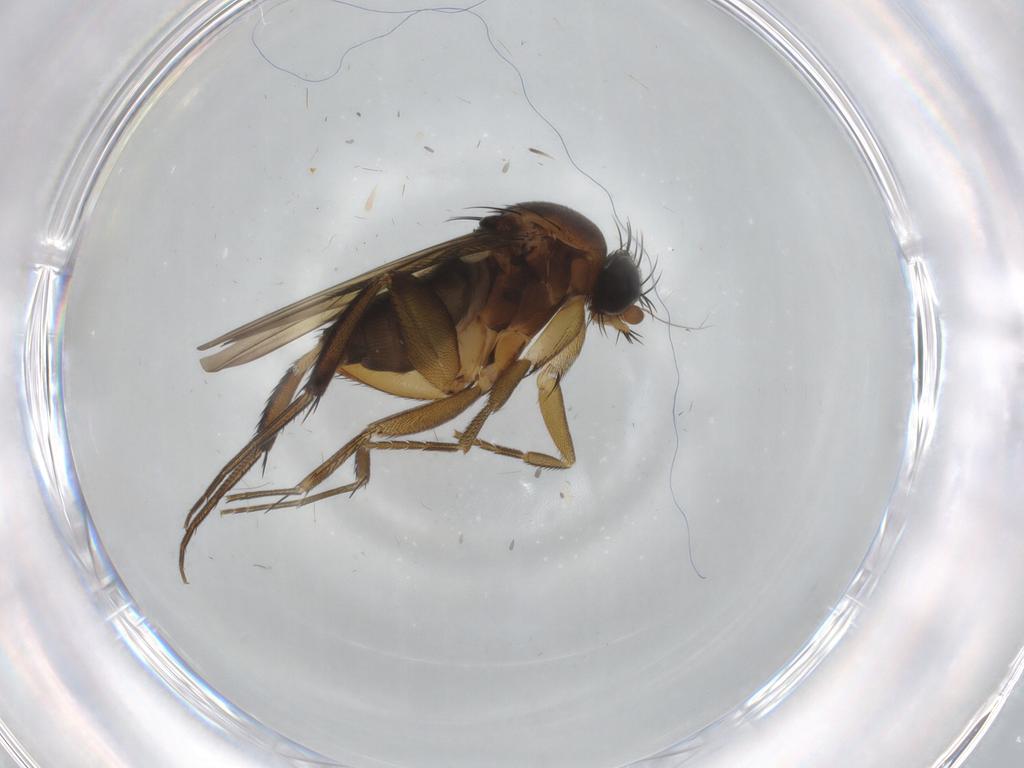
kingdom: Animalia
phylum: Arthropoda
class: Insecta
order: Diptera
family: Phoridae
